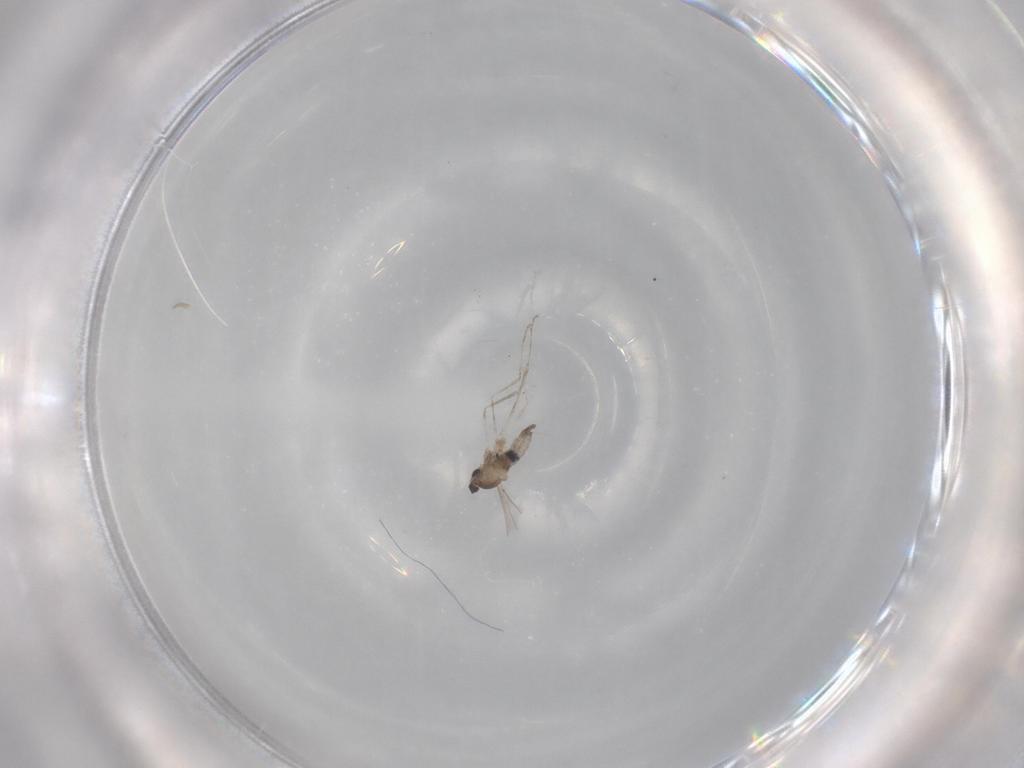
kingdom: Animalia
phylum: Arthropoda
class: Insecta
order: Diptera
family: Cecidomyiidae
